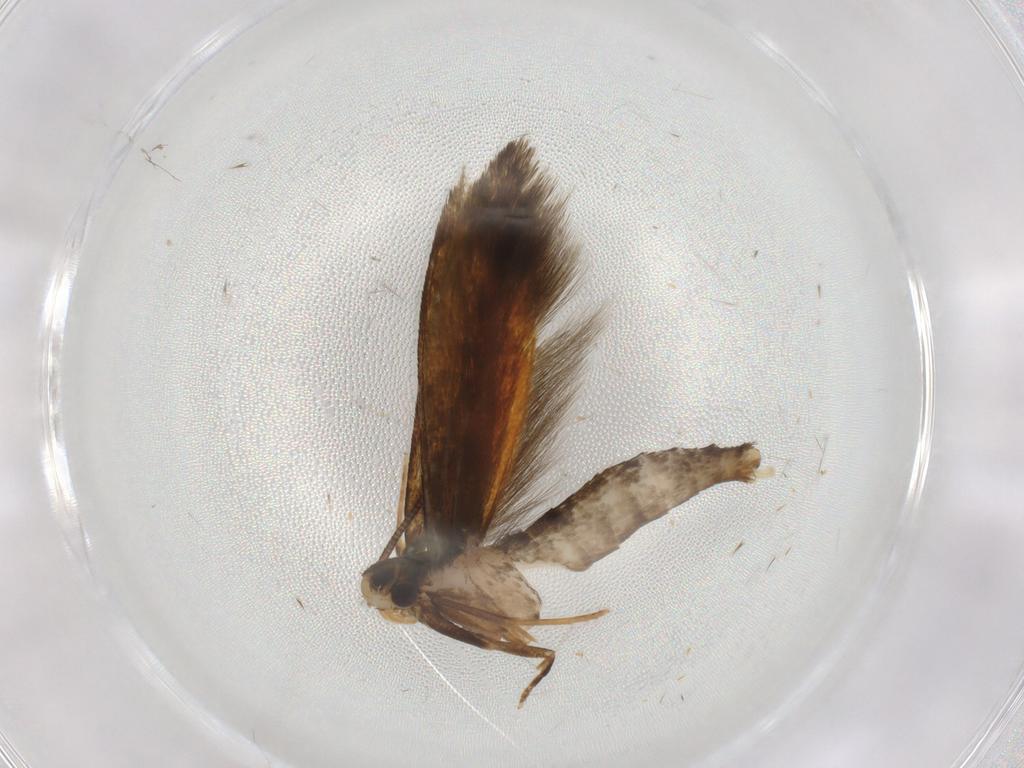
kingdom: Animalia
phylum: Arthropoda
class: Insecta
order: Lepidoptera
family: Tineidae
